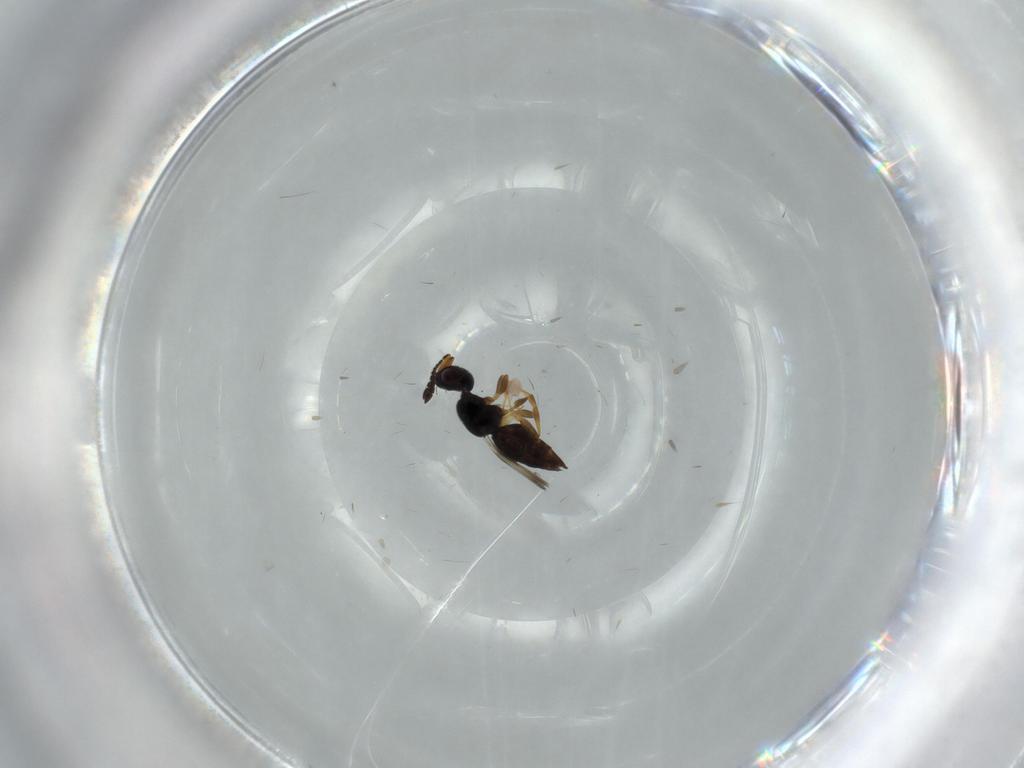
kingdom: Animalia
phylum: Arthropoda
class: Insecta
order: Hymenoptera
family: Ceraphronidae
